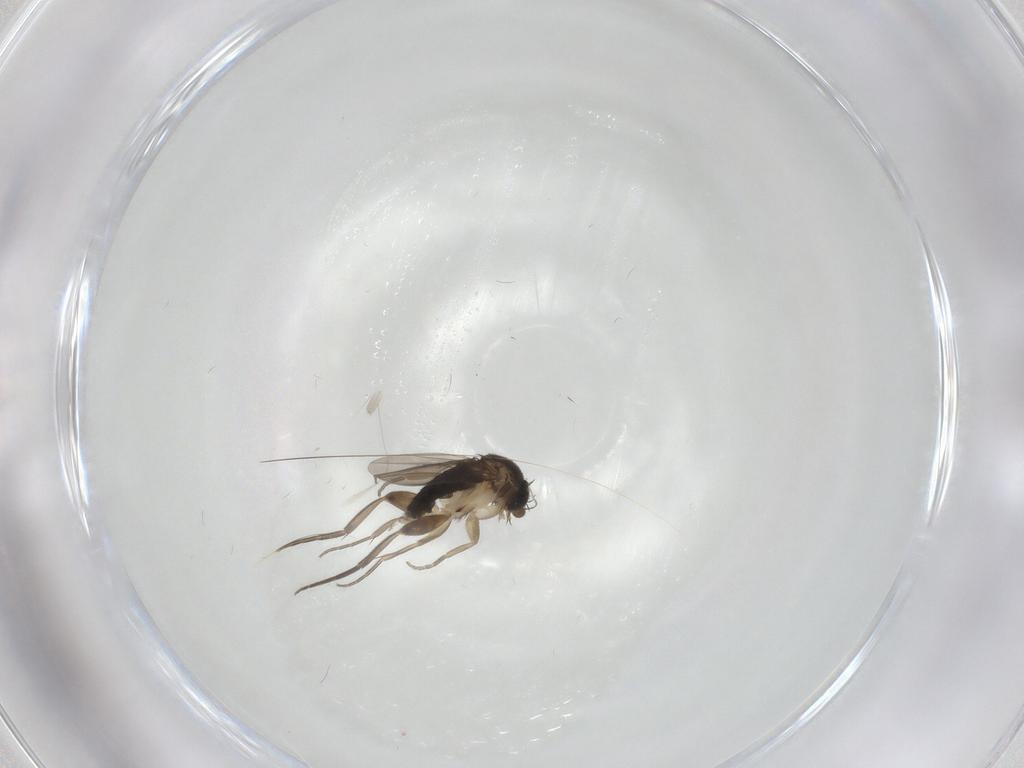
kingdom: Animalia
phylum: Arthropoda
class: Insecta
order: Diptera
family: Phoridae
